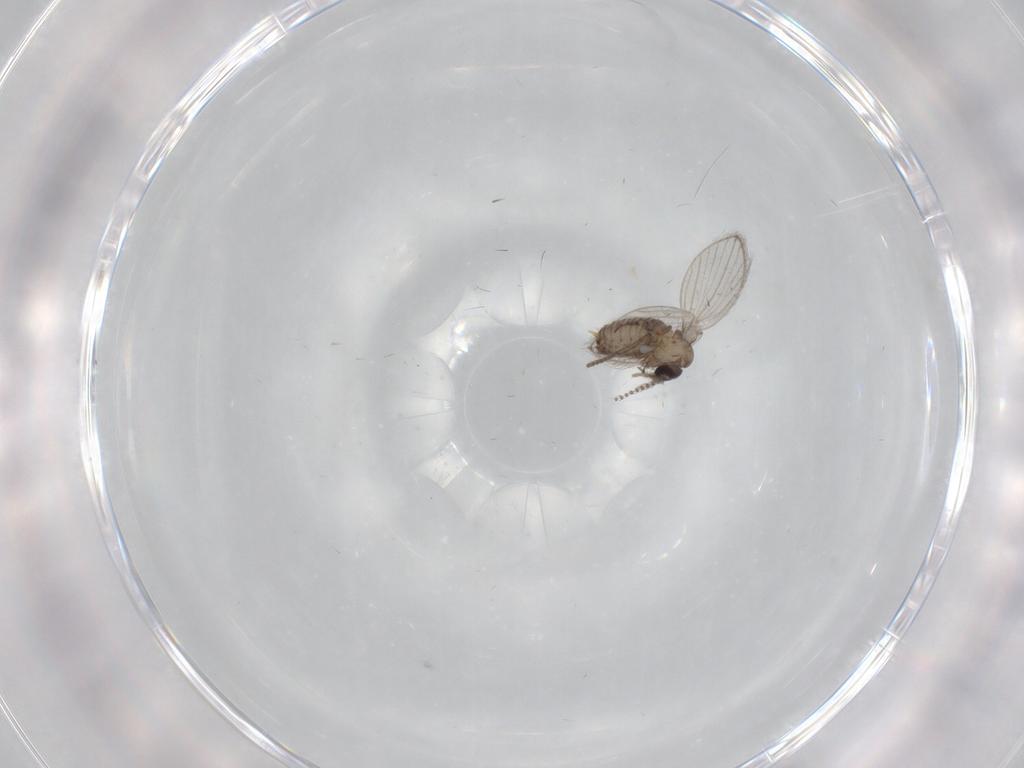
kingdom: Animalia
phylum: Arthropoda
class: Insecta
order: Diptera
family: Psychodidae
